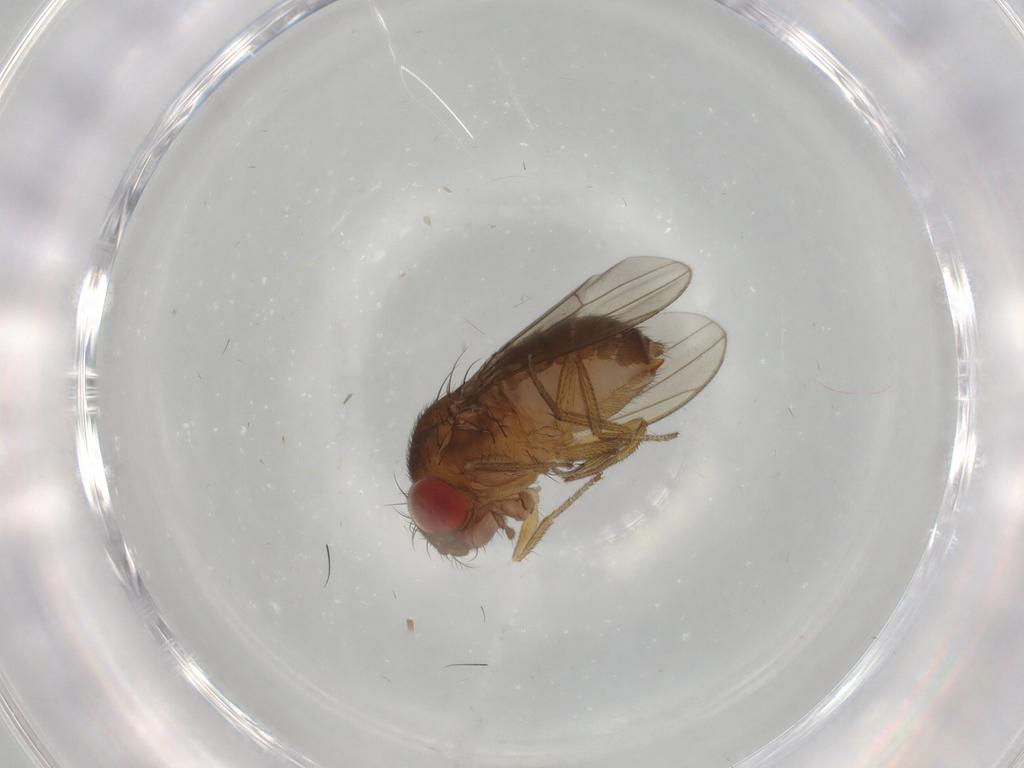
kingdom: Animalia
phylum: Arthropoda
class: Insecta
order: Diptera
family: Drosophilidae
